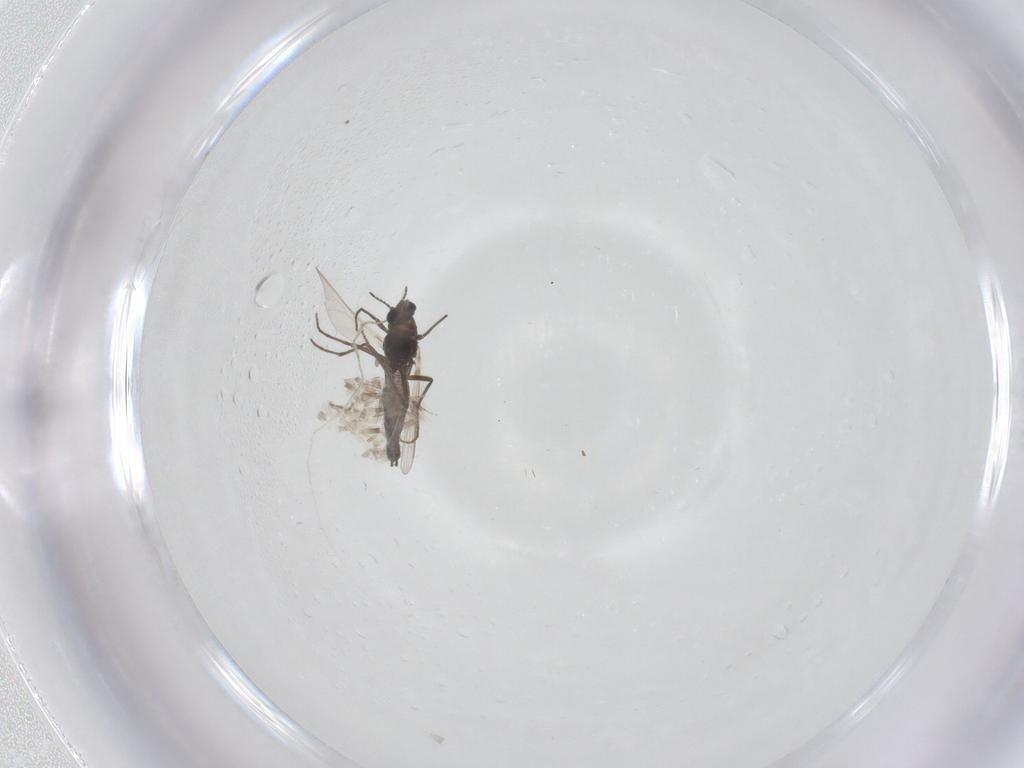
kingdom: Animalia
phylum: Arthropoda
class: Insecta
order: Diptera
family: Chironomidae
